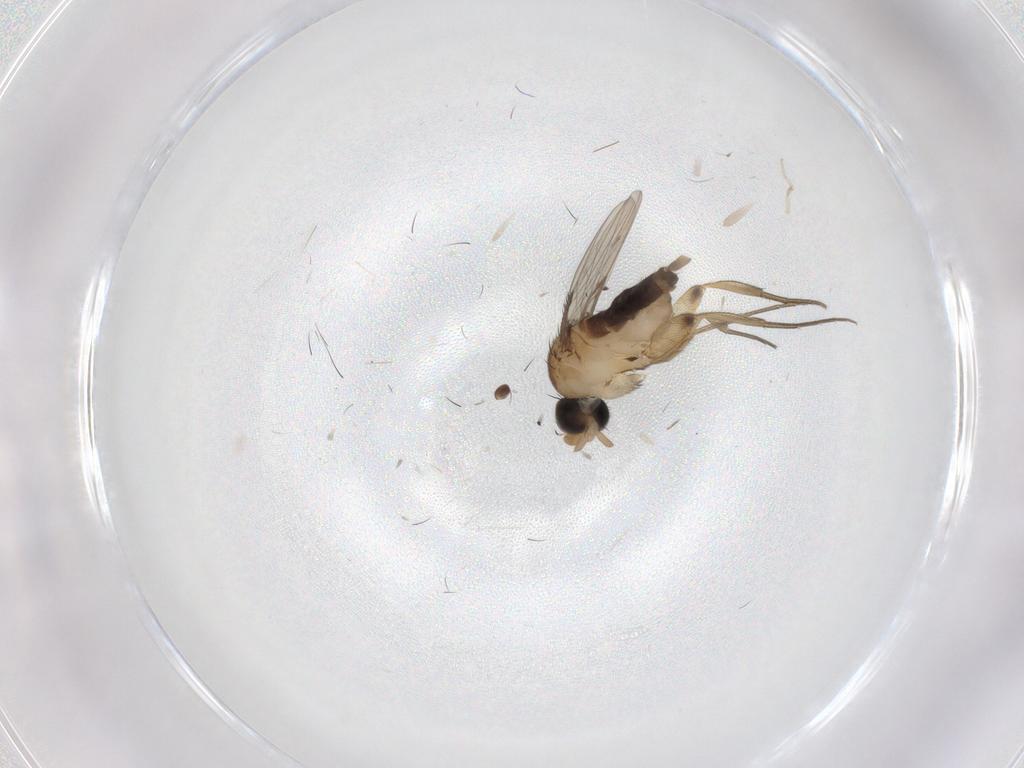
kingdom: Animalia
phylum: Arthropoda
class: Insecta
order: Diptera
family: Phoridae
